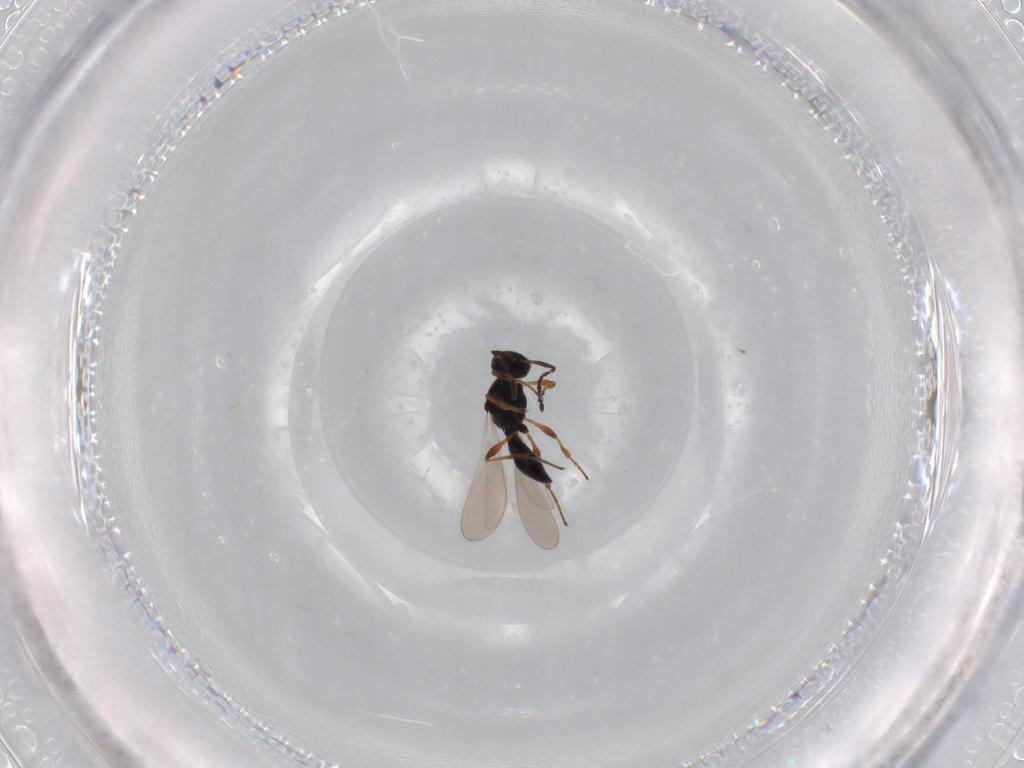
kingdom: Animalia
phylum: Arthropoda
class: Insecta
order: Hymenoptera
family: Platygastridae
